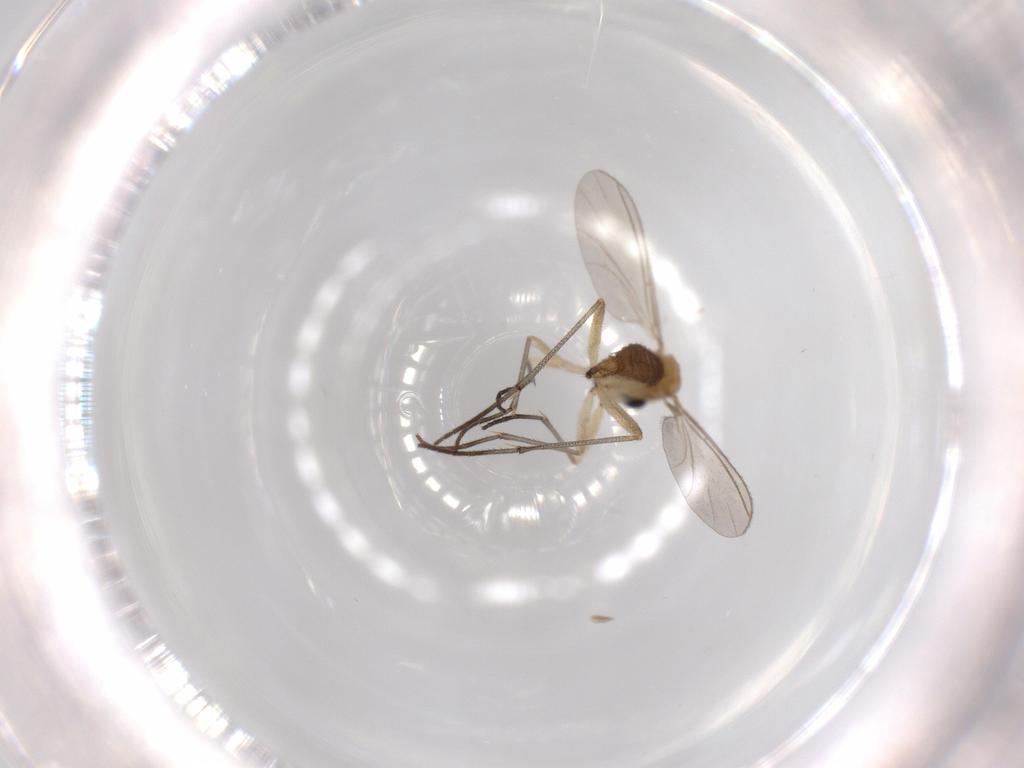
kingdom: Animalia
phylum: Arthropoda
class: Insecta
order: Diptera
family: Sciaridae
